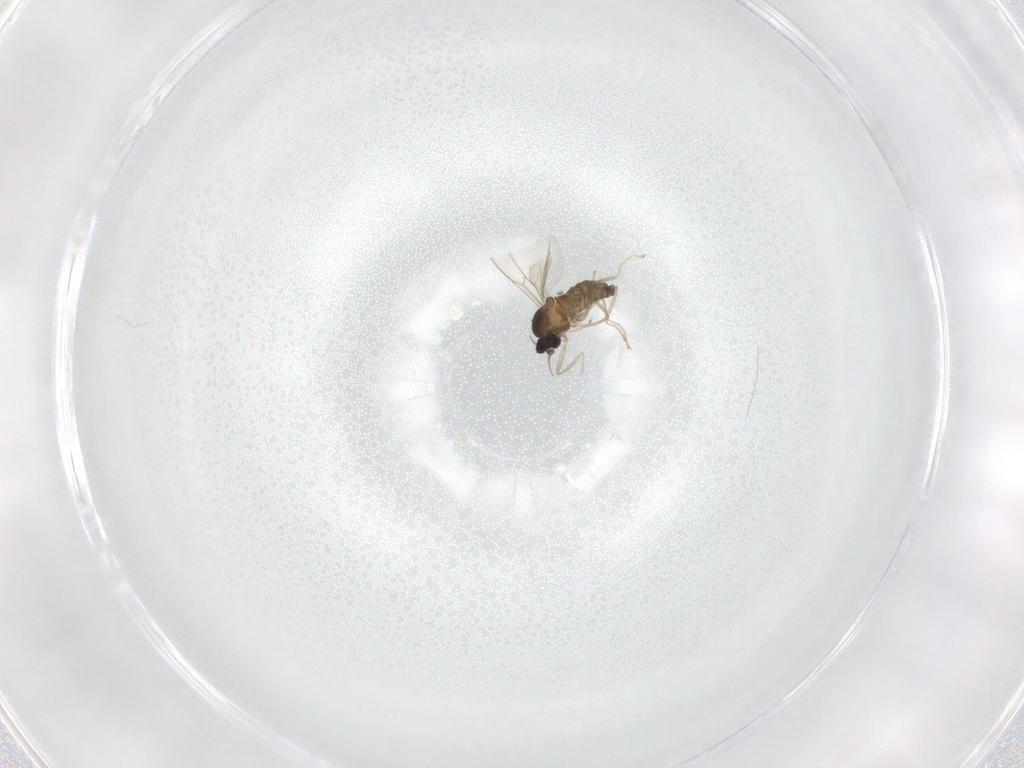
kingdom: Animalia
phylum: Arthropoda
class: Insecta
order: Diptera
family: Cecidomyiidae
